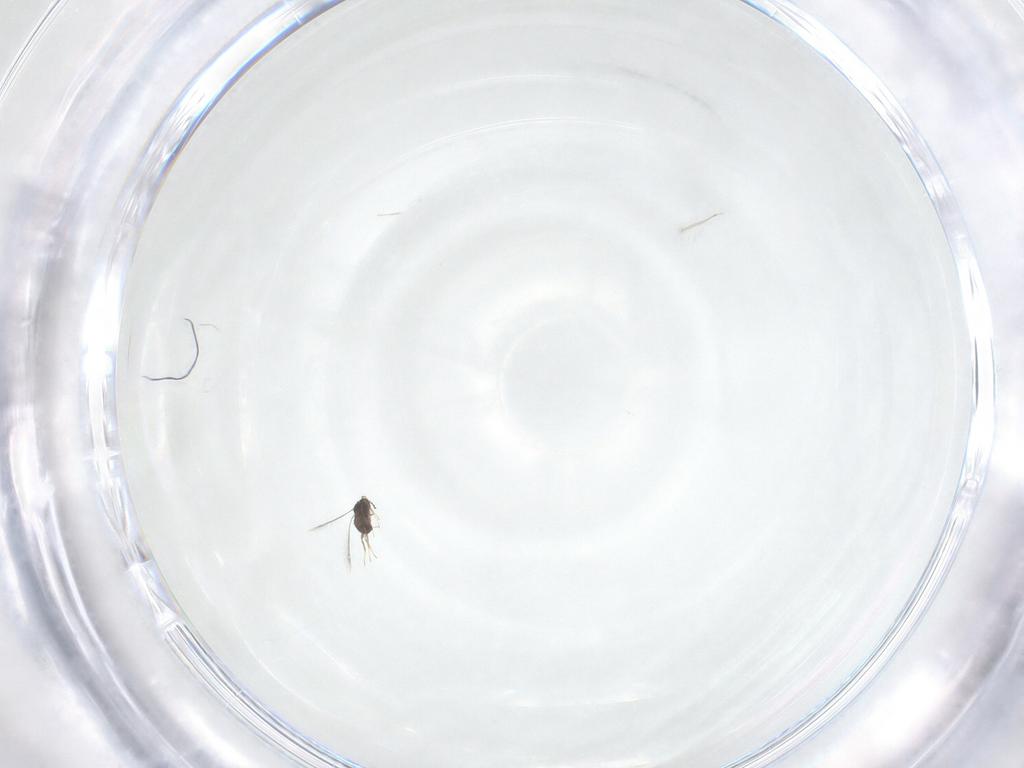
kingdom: Animalia
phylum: Arthropoda
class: Insecta
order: Hymenoptera
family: Mymaridae
